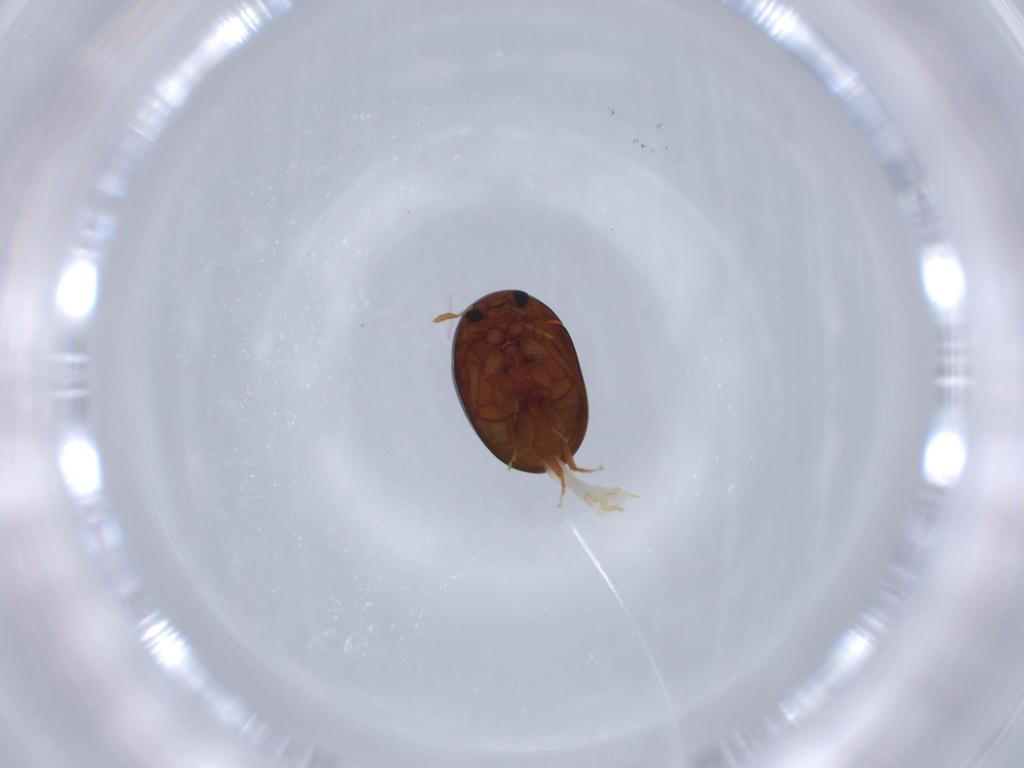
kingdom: Animalia
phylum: Arthropoda
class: Insecta
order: Coleoptera
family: Phalacridae
